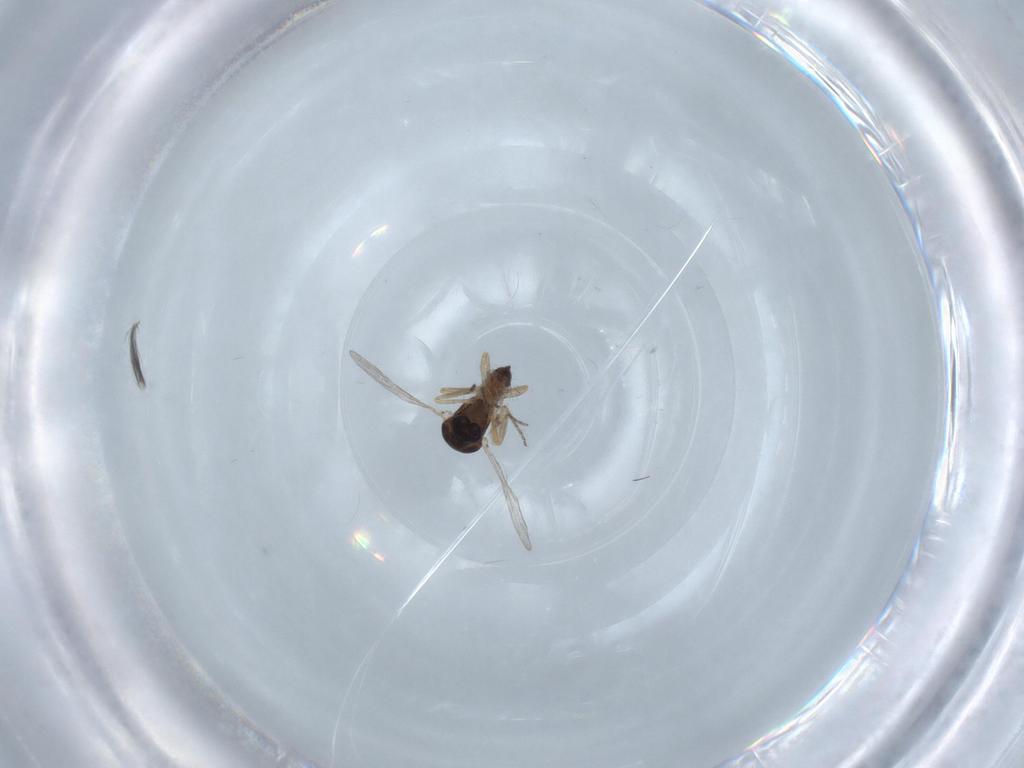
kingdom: Animalia
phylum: Arthropoda
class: Insecta
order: Diptera
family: Ceratopogonidae
